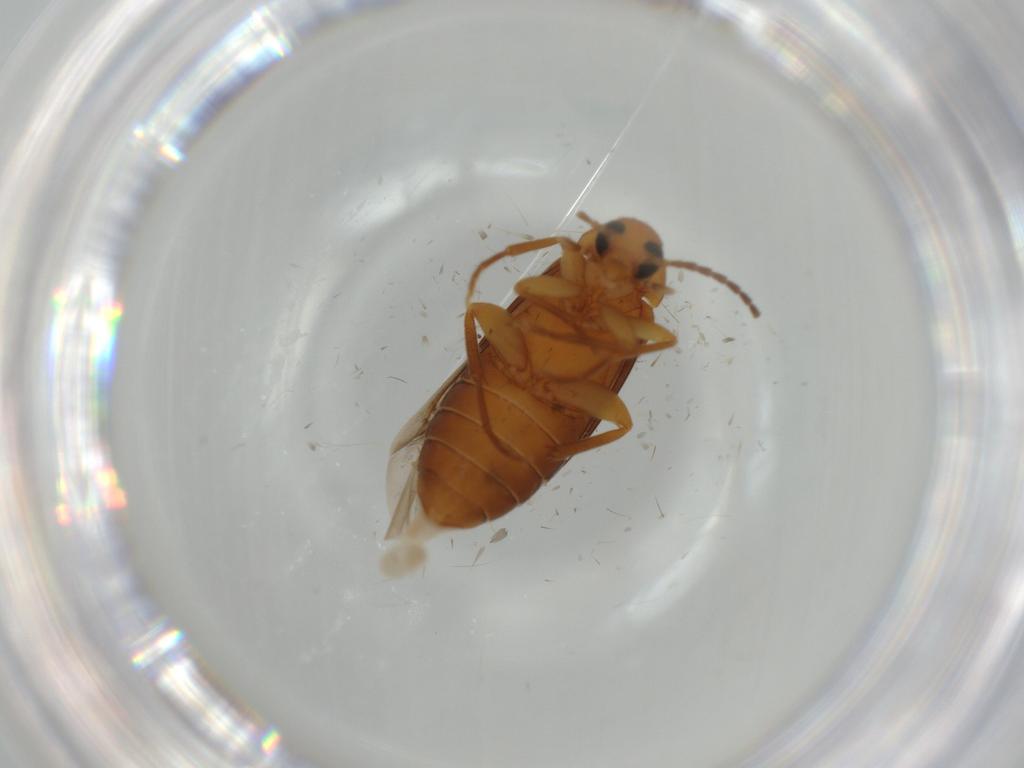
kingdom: Animalia
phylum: Arthropoda
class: Insecta
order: Coleoptera
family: Scraptiidae
